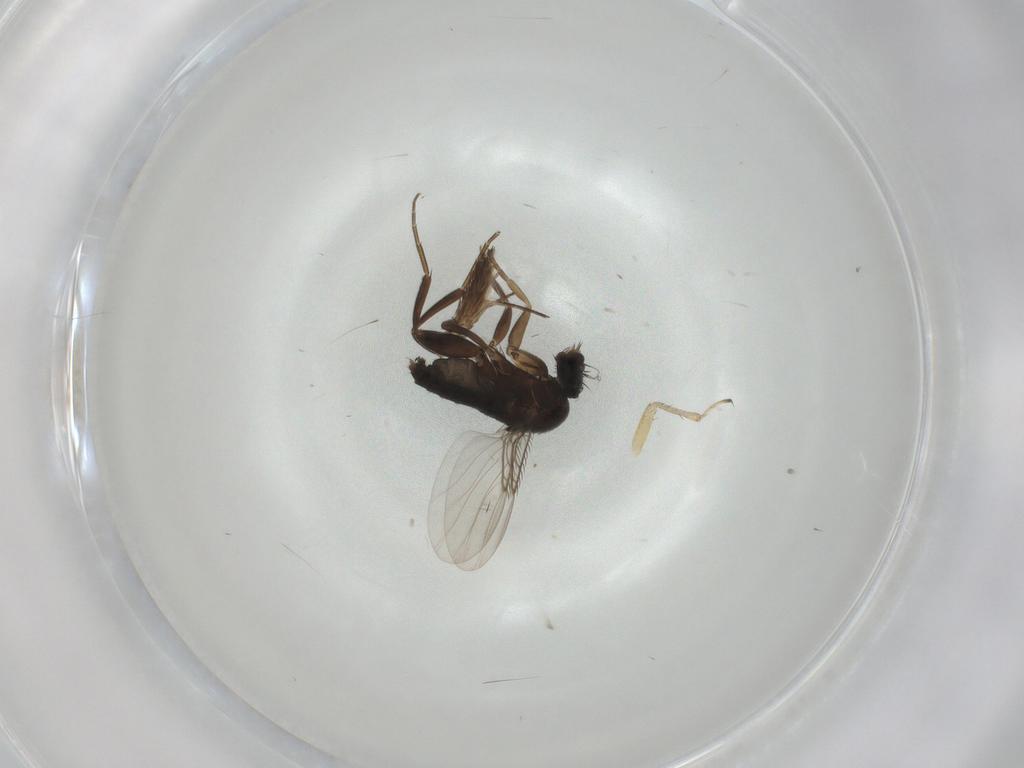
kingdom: Animalia
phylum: Arthropoda
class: Insecta
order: Diptera
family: Phoridae
